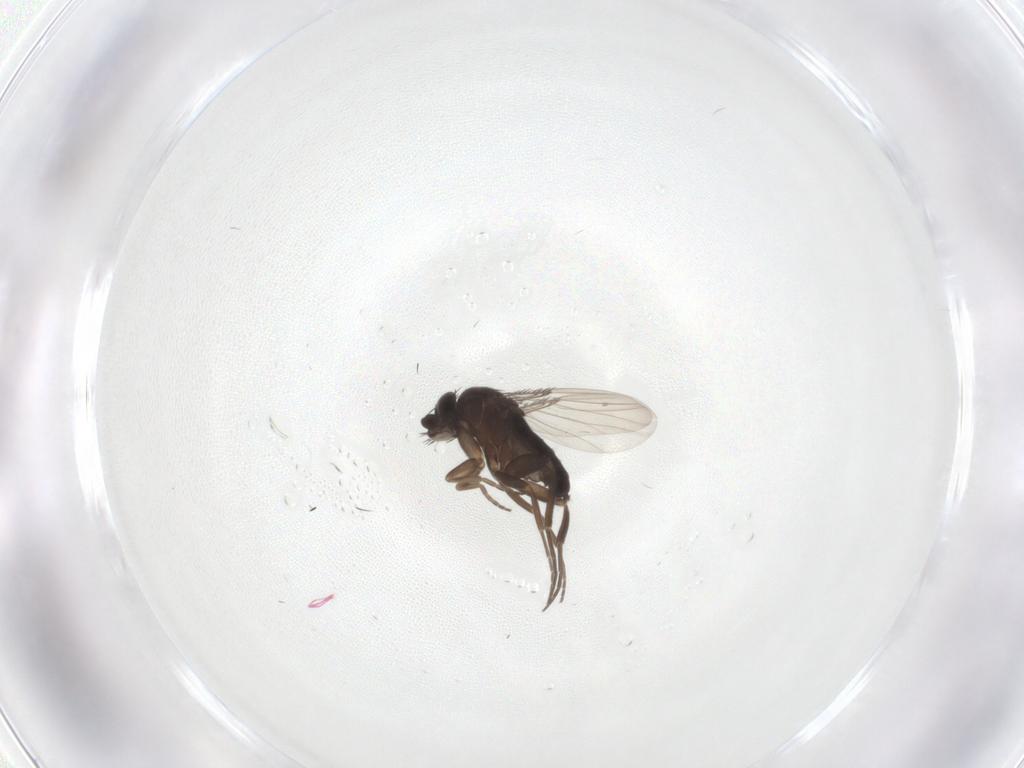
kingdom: Animalia
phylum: Arthropoda
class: Insecta
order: Diptera
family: Phoridae
